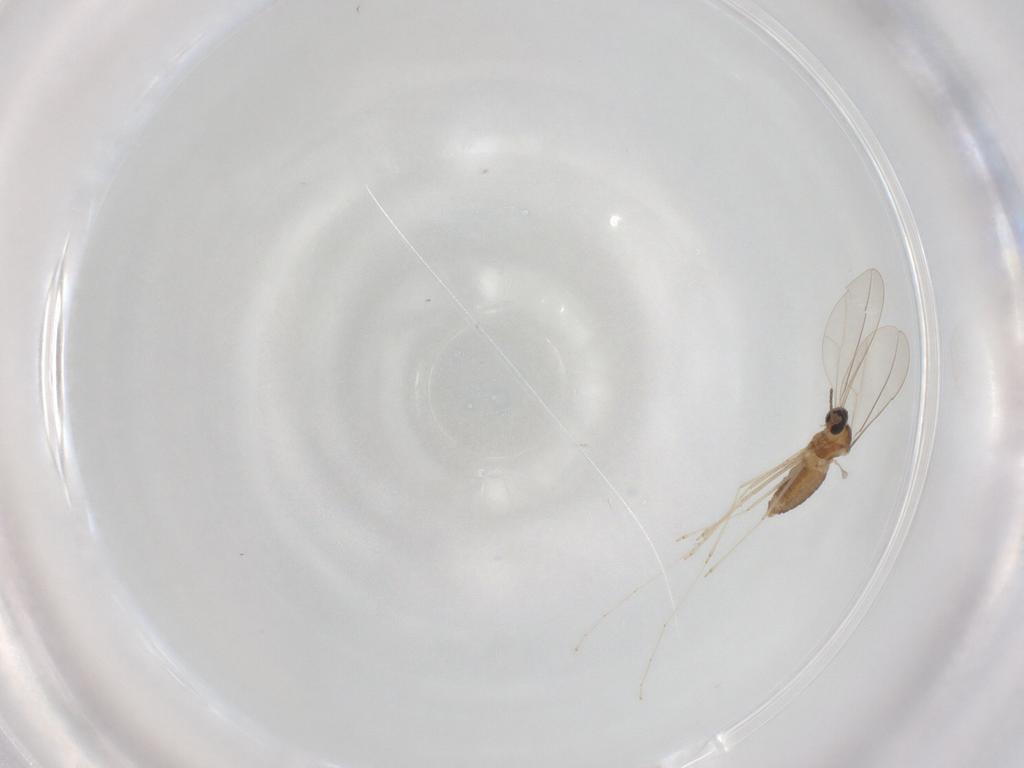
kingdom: Animalia
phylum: Arthropoda
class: Insecta
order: Diptera
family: Cecidomyiidae
